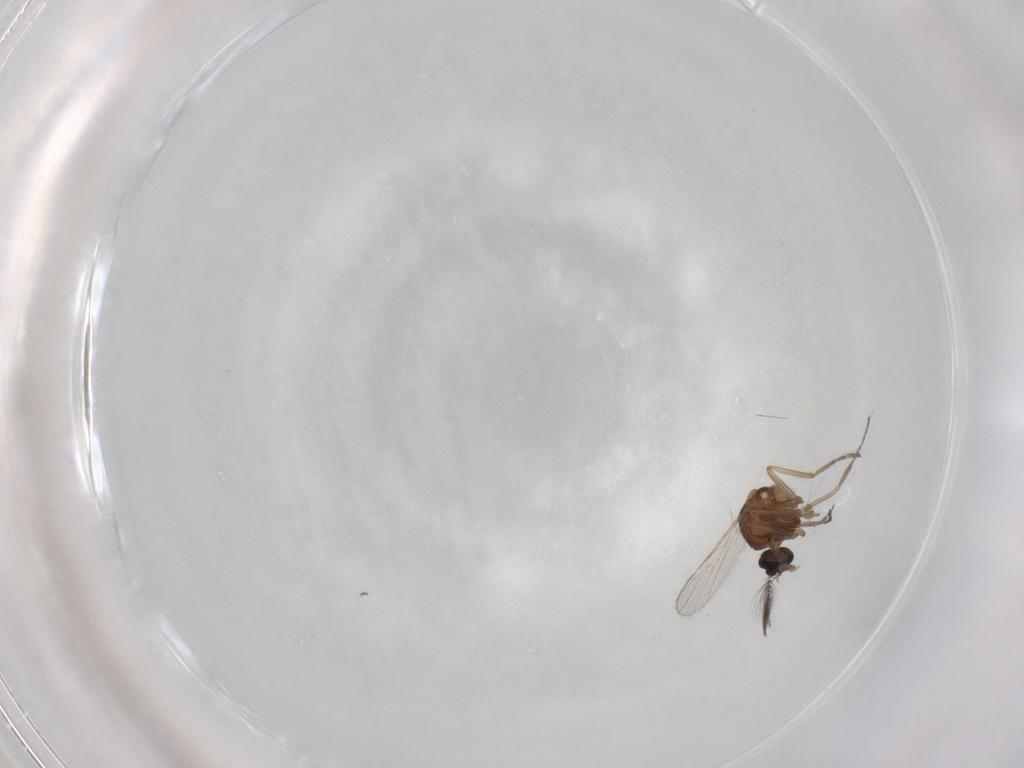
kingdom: Animalia
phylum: Arthropoda
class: Insecta
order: Diptera
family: Ceratopogonidae
